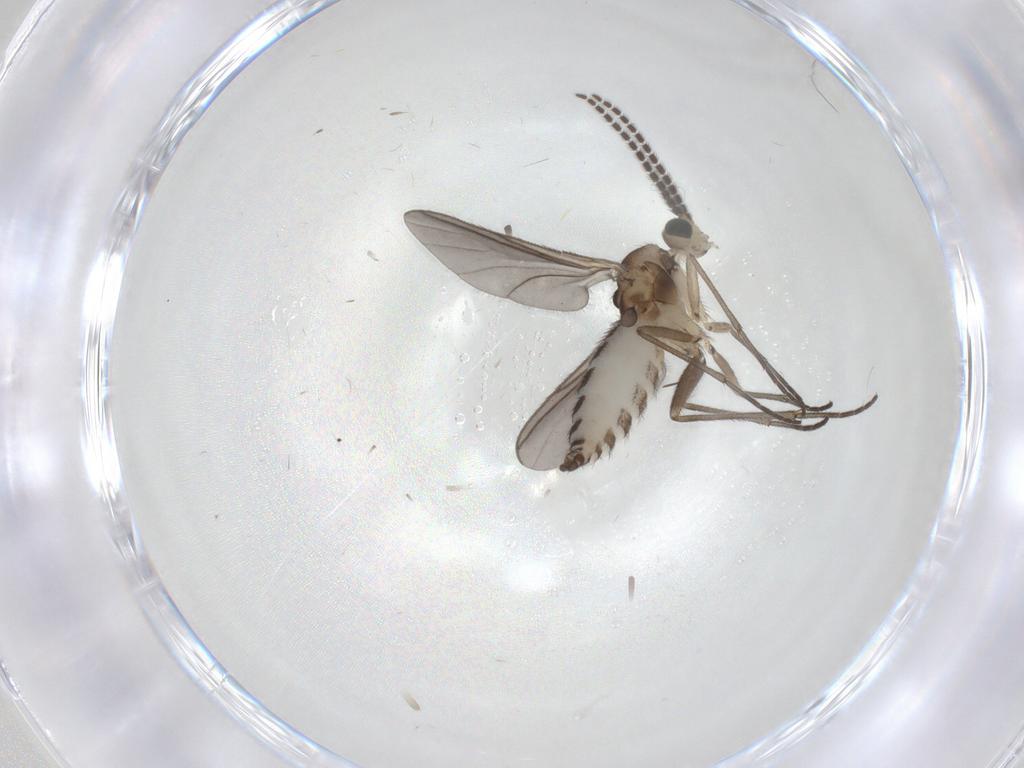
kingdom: Animalia
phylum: Arthropoda
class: Insecta
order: Diptera
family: Sciaridae
